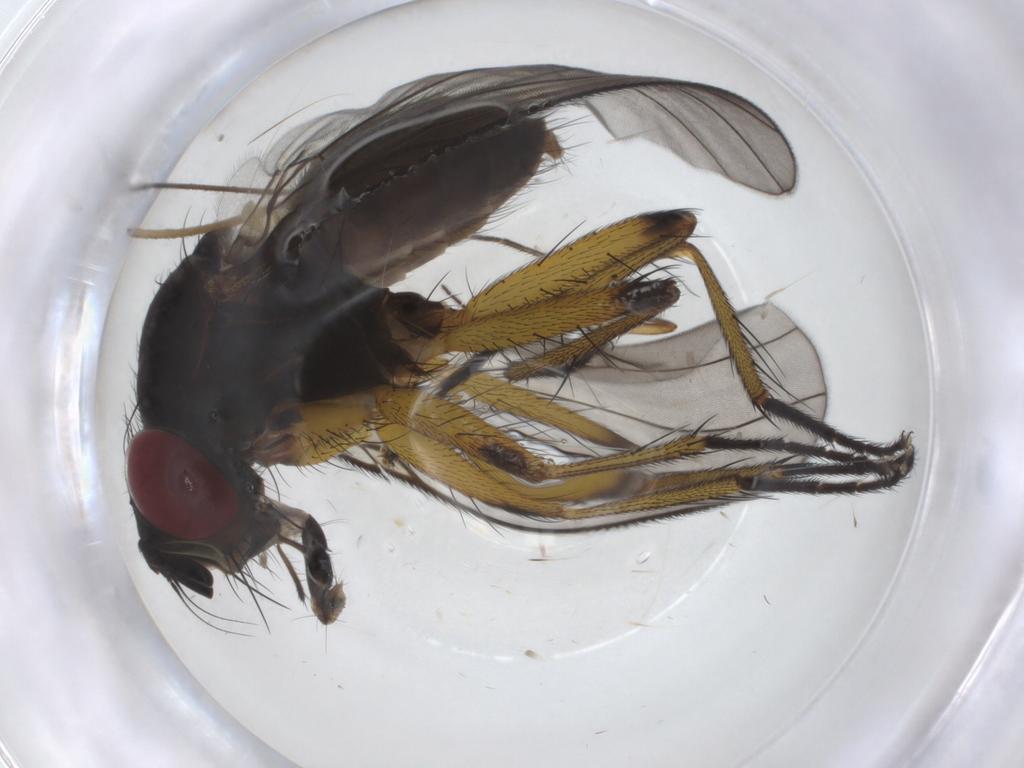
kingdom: Animalia
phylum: Arthropoda
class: Insecta
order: Diptera
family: Muscidae
